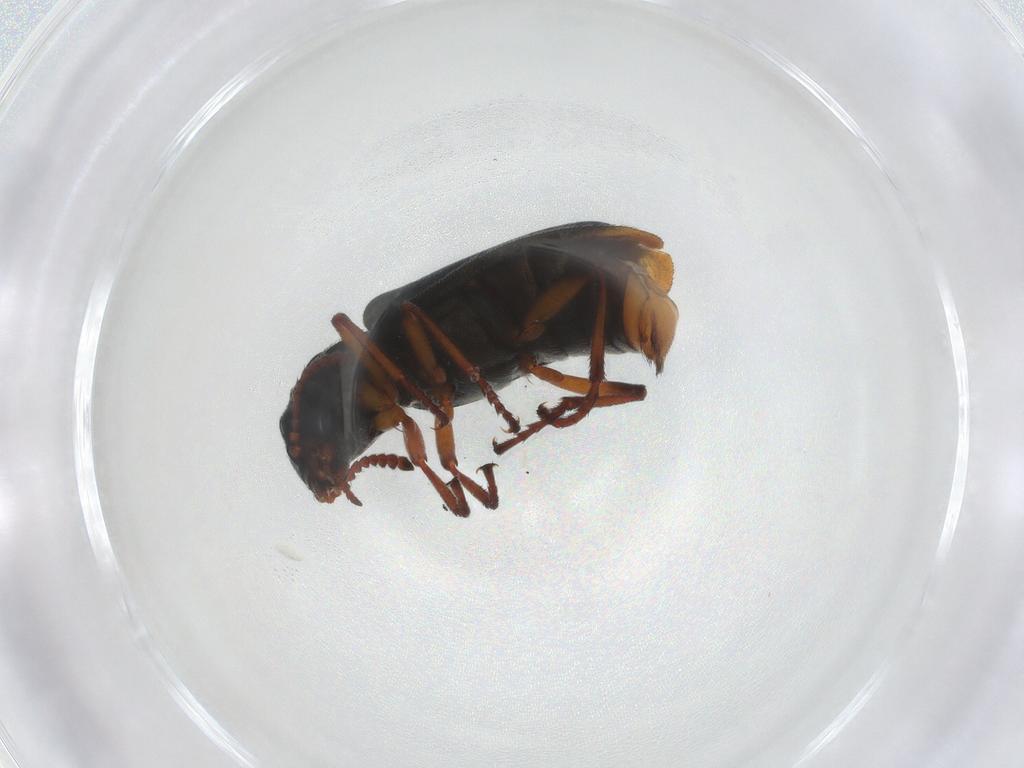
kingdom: Animalia
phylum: Arthropoda
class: Insecta
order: Coleoptera
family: Melyridae
